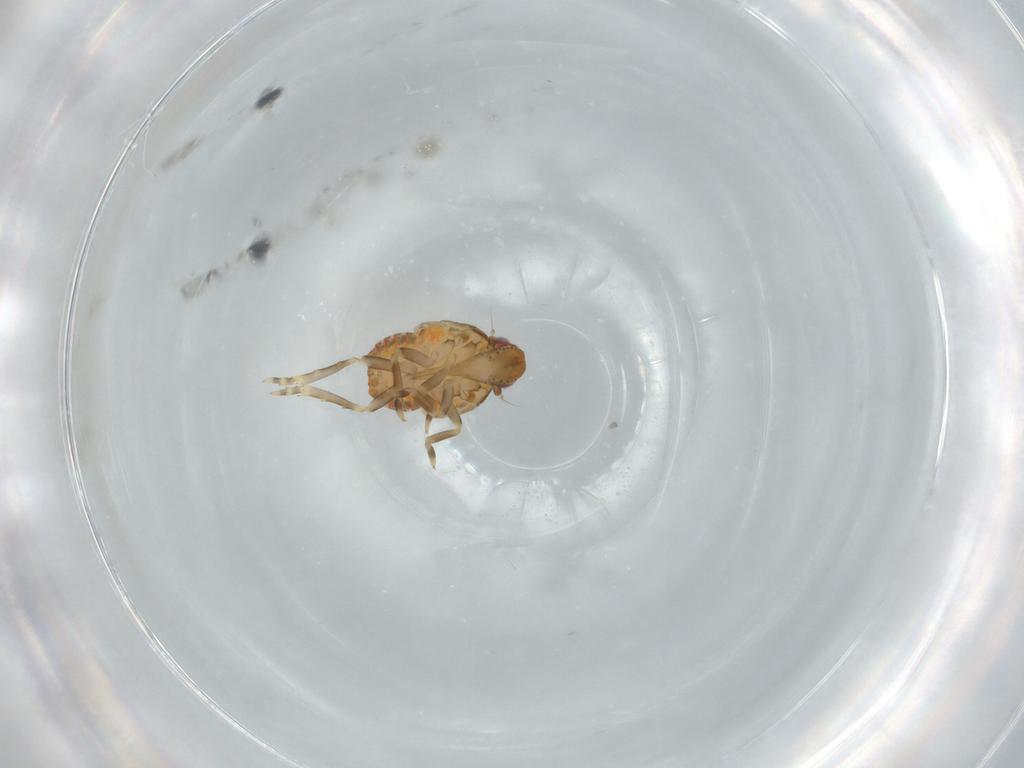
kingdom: Animalia
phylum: Arthropoda
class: Insecta
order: Hemiptera
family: Flatidae
